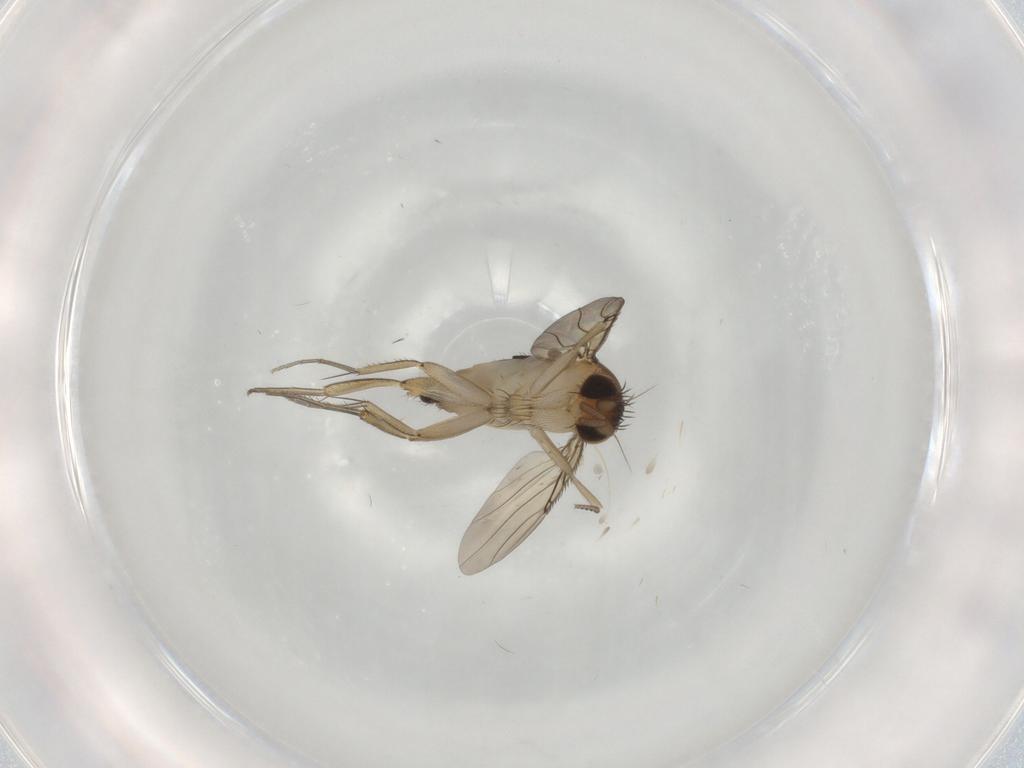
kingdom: Animalia
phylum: Arthropoda
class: Insecta
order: Diptera
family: Phoridae
